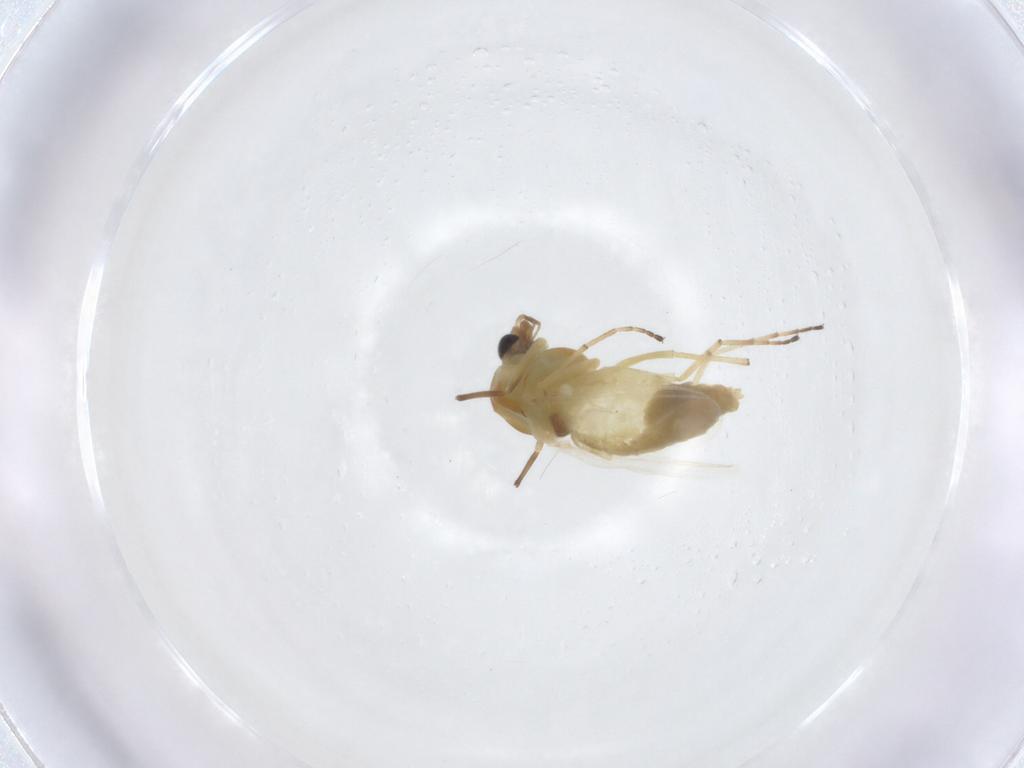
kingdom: Animalia
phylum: Arthropoda
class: Insecta
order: Diptera
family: Chironomidae
